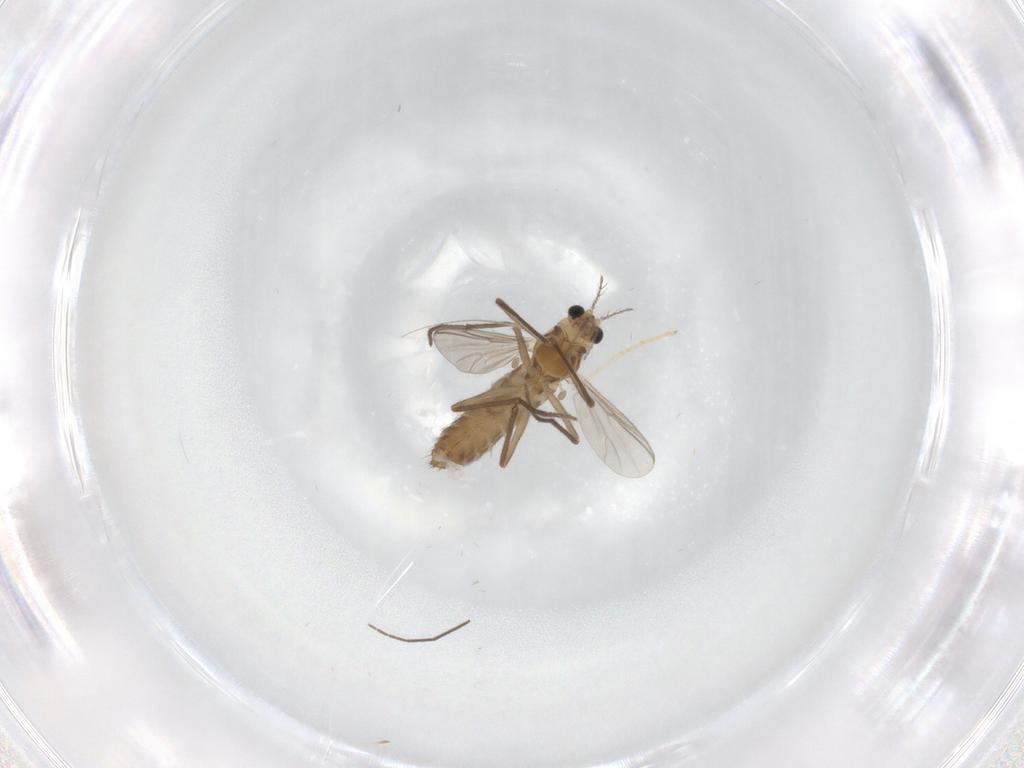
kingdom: Animalia
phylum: Arthropoda
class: Insecta
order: Diptera
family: Chironomidae
